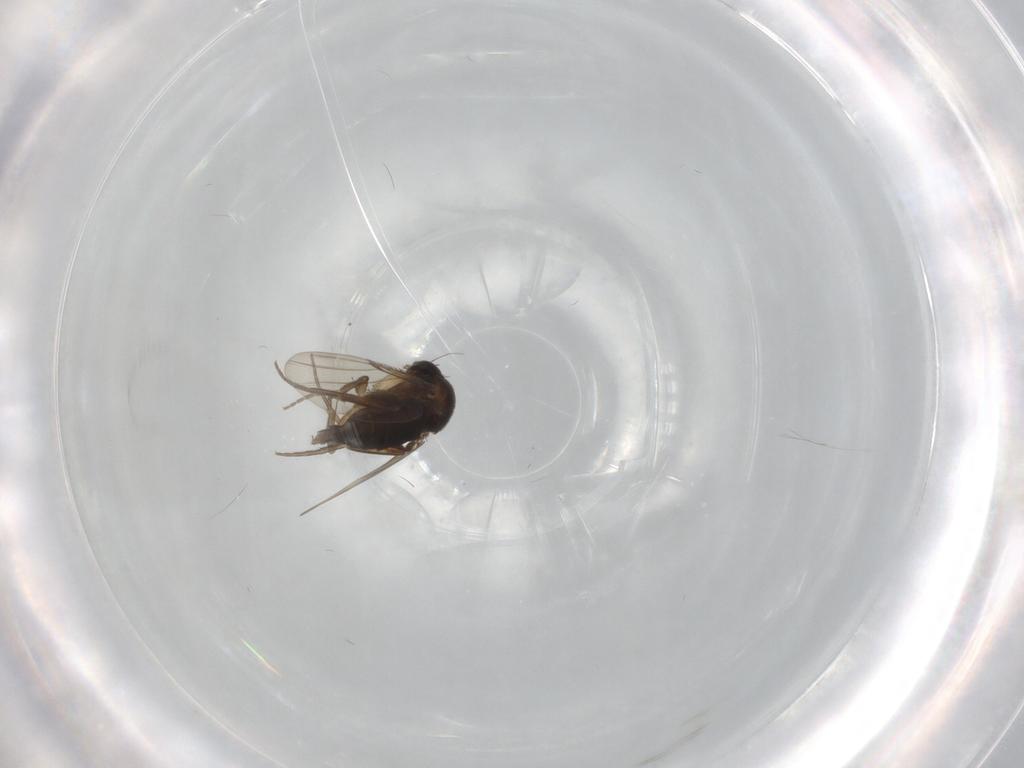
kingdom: Animalia
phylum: Arthropoda
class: Insecta
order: Diptera
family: Phoridae
